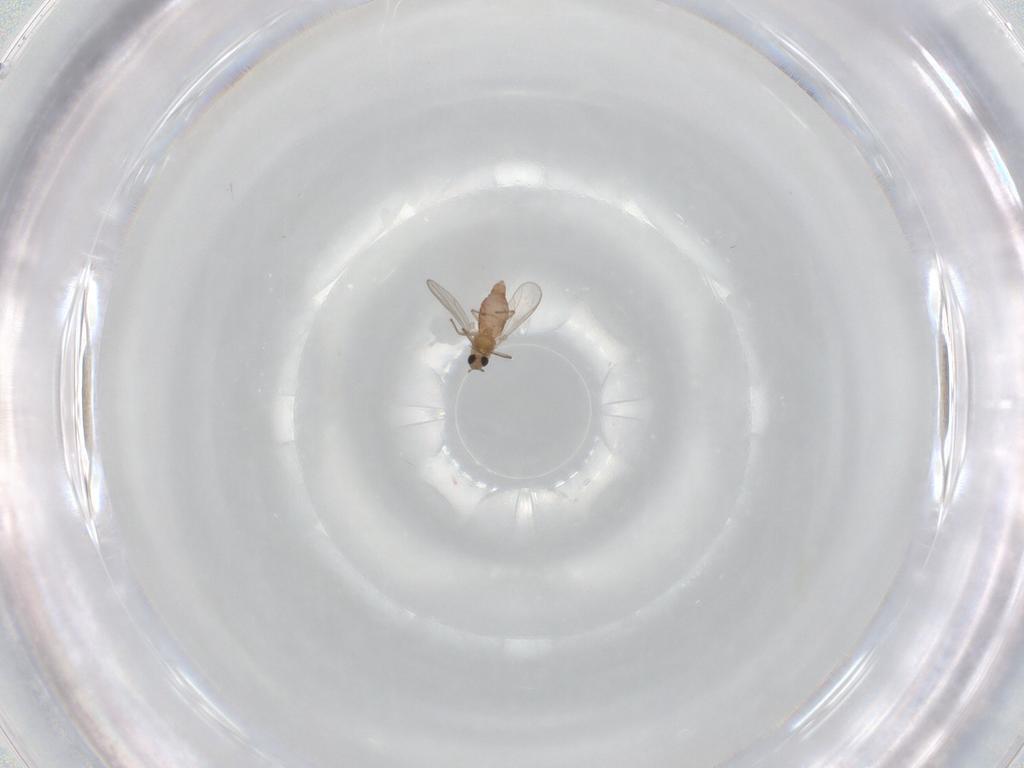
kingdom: Animalia
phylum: Arthropoda
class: Insecta
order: Diptera
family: Chironomidae
